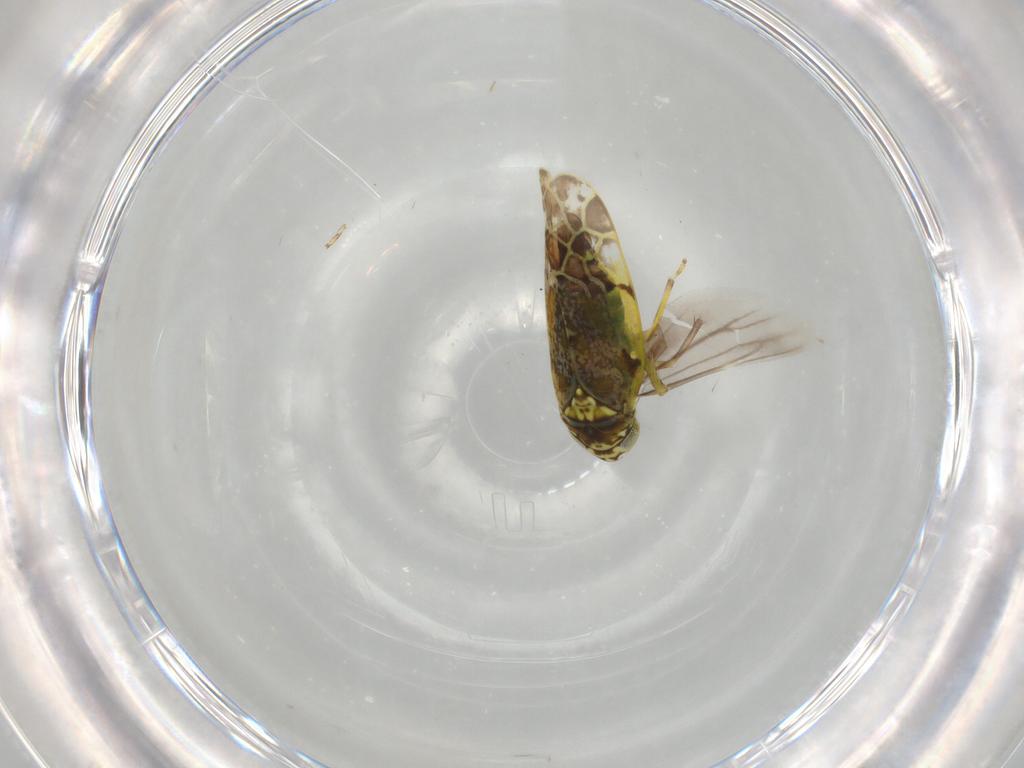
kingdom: Animalia
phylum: Arthropoda
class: Insecta
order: Hemiptera
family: Cicadellidae
